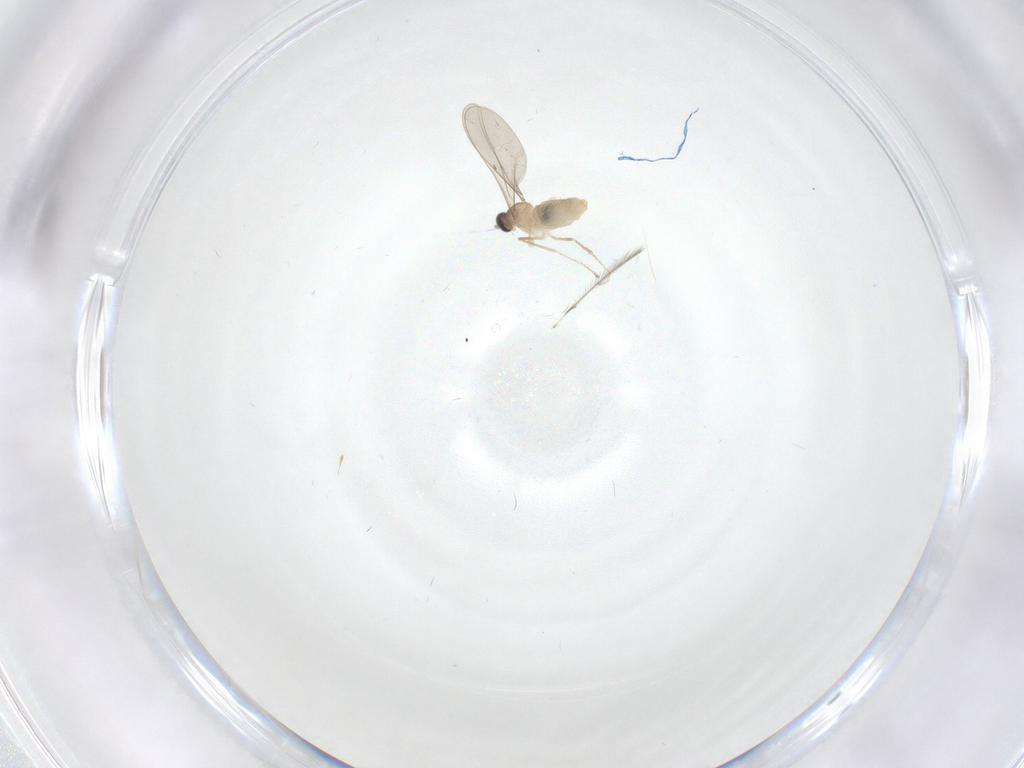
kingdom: Animalia
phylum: Arthropoda
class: Insecta
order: Diptera
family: Cecidomyiidae
